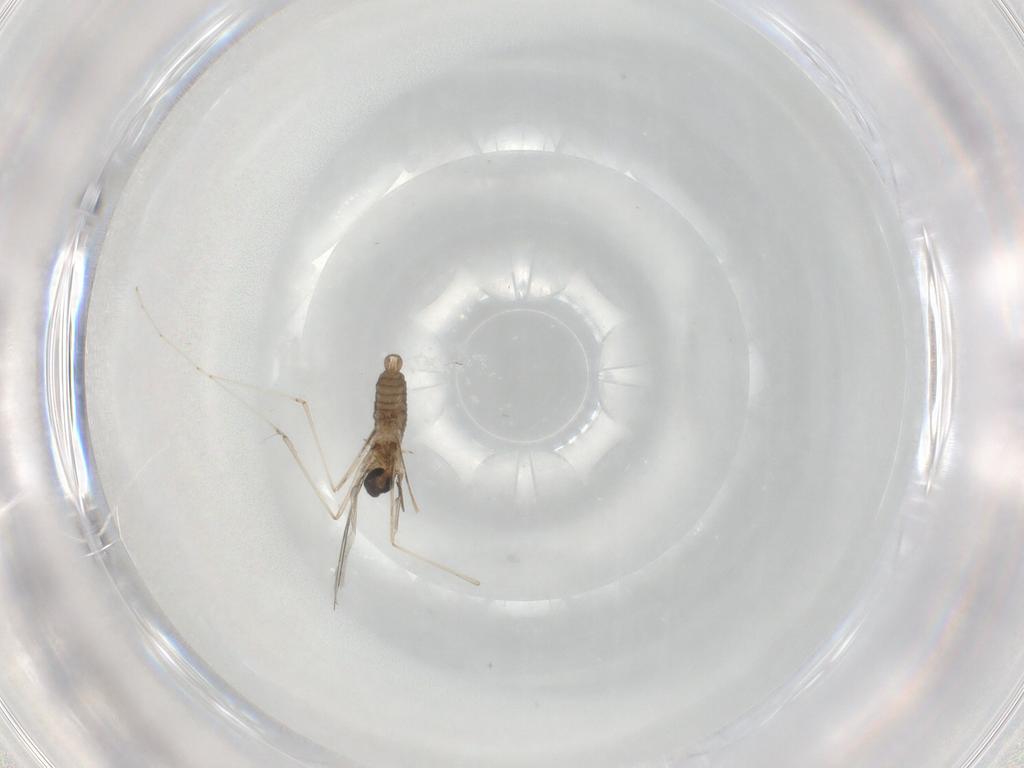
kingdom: Animalia
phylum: Arthropoda
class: Insecta
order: Diptera
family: Cecidomyiidae
